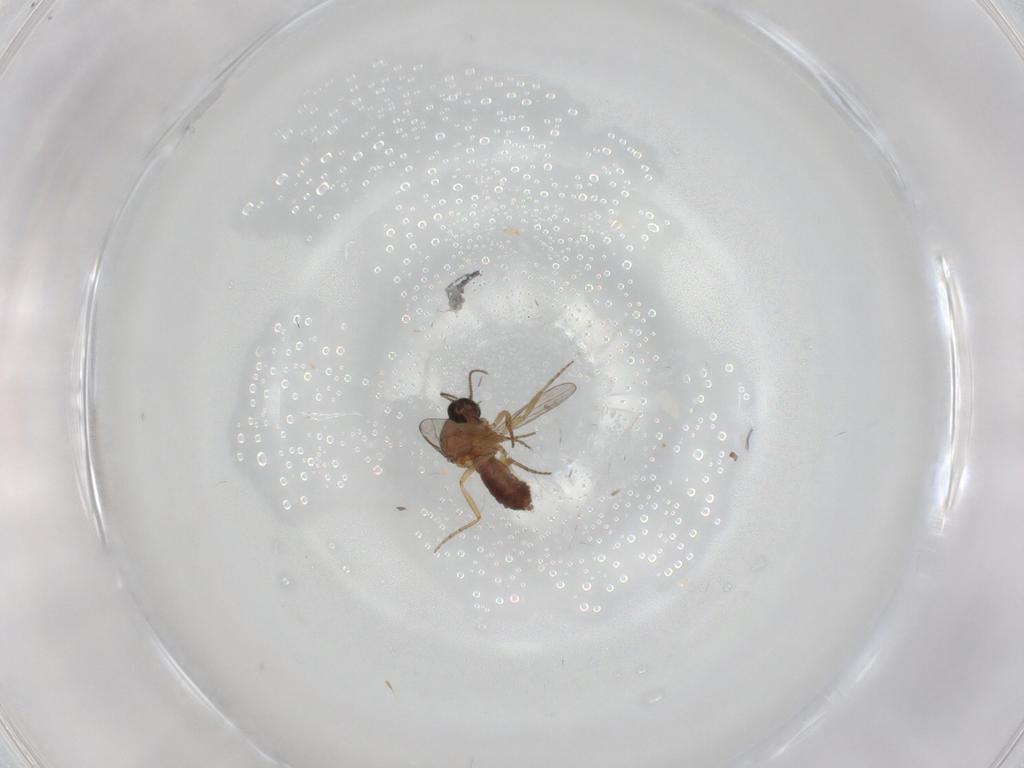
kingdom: Animalia
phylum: Arthropoda
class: Insecta
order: Diptera
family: Ceratopogonidae
